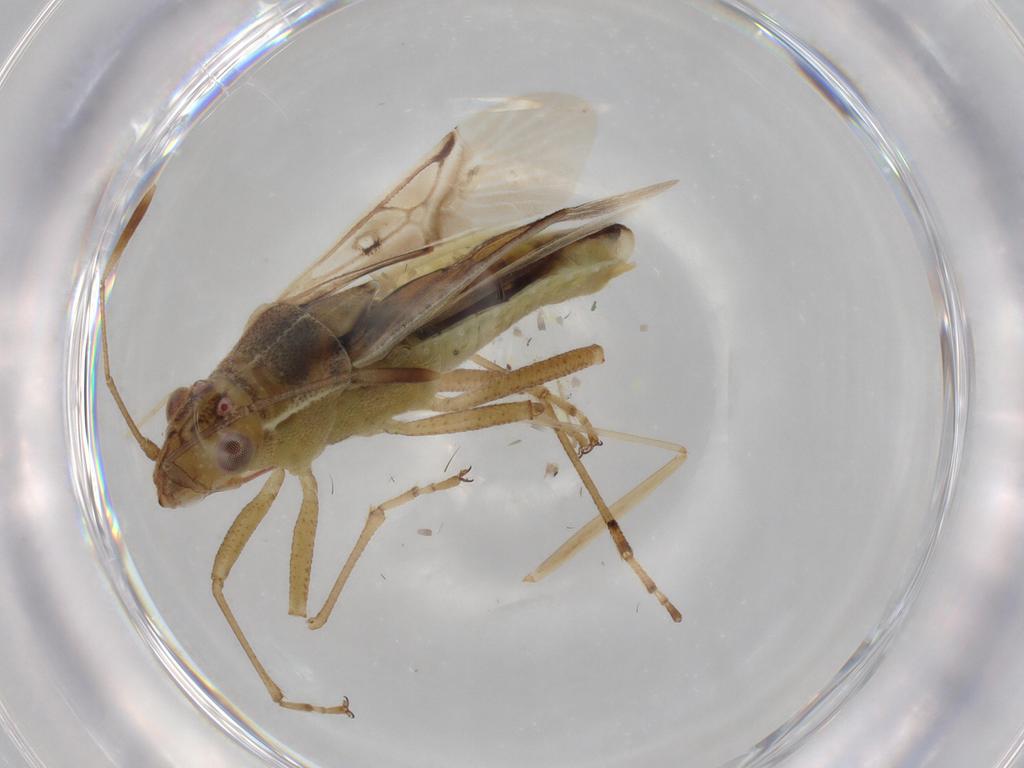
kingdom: Animalia
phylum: Arthropoda
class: Insecta
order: Hemiptera
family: Rhopalidae
